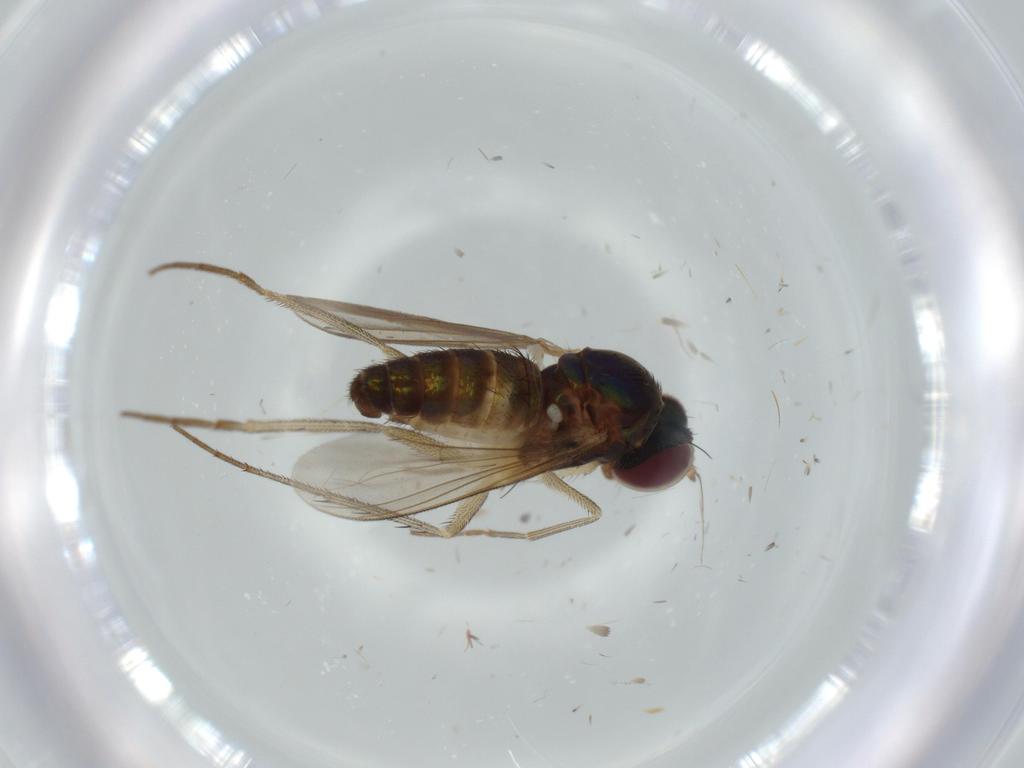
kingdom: Animalia
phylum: Arthropoda
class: Insecta
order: Diptera
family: Dolichopodidae
